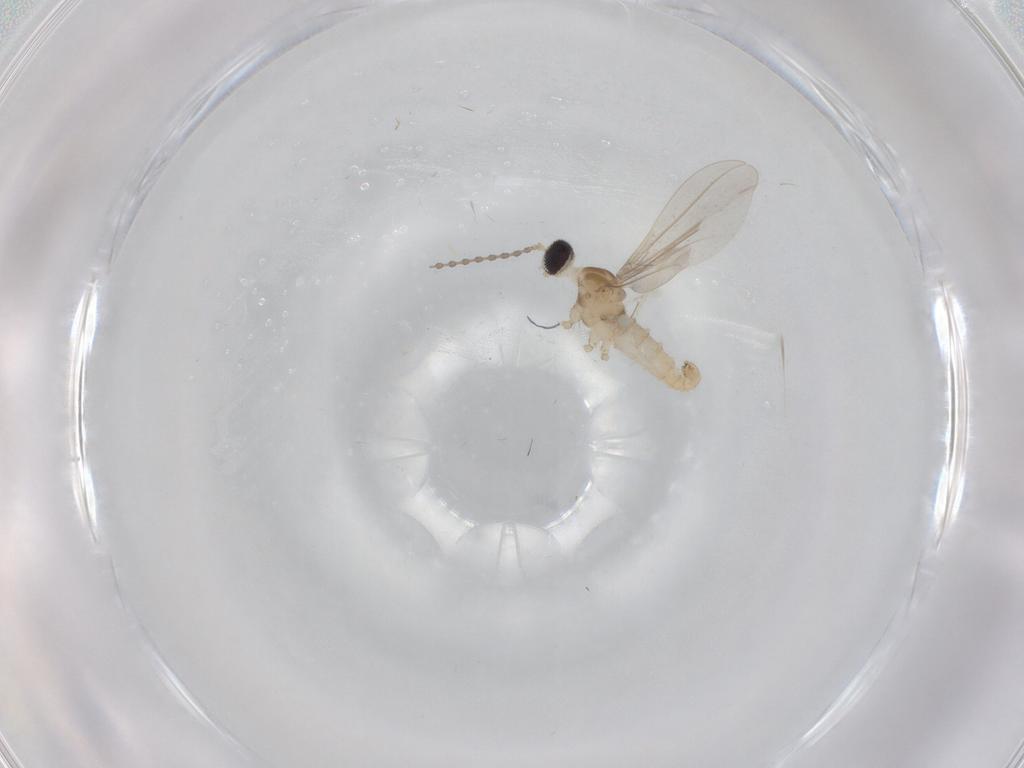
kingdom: Animalia
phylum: Arthropoda
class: Insecta
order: Diptera
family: Cecidomyiidae
